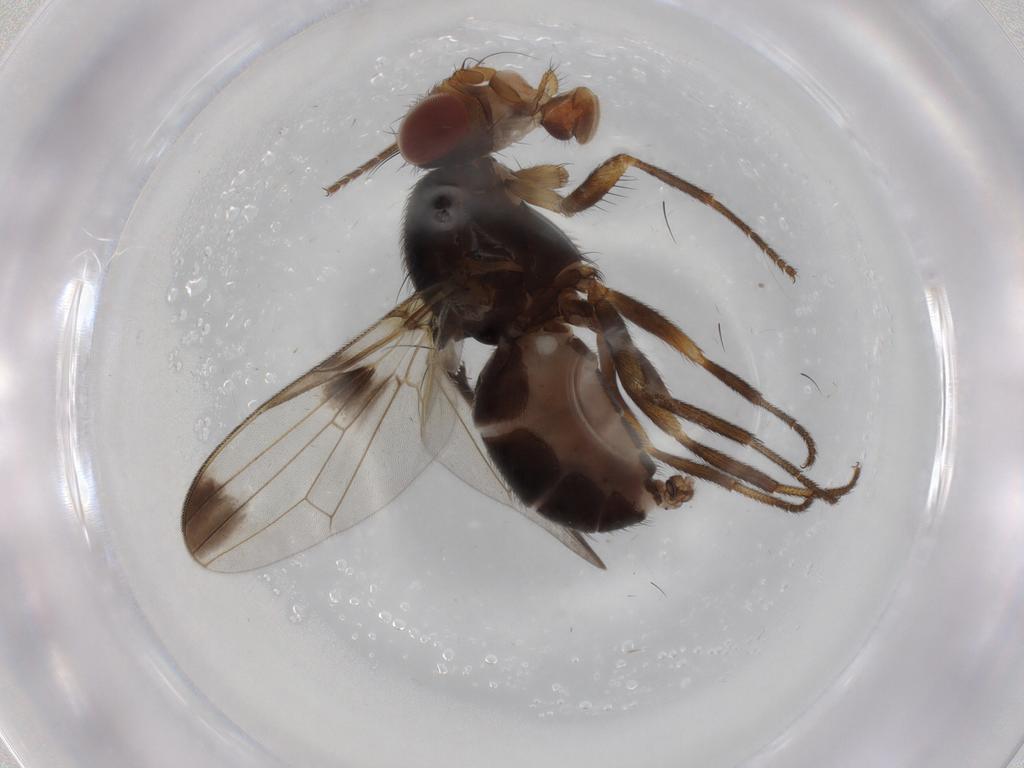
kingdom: Animalia
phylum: Arthropoda
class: Insecta
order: Diptera
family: Ulidiidae
